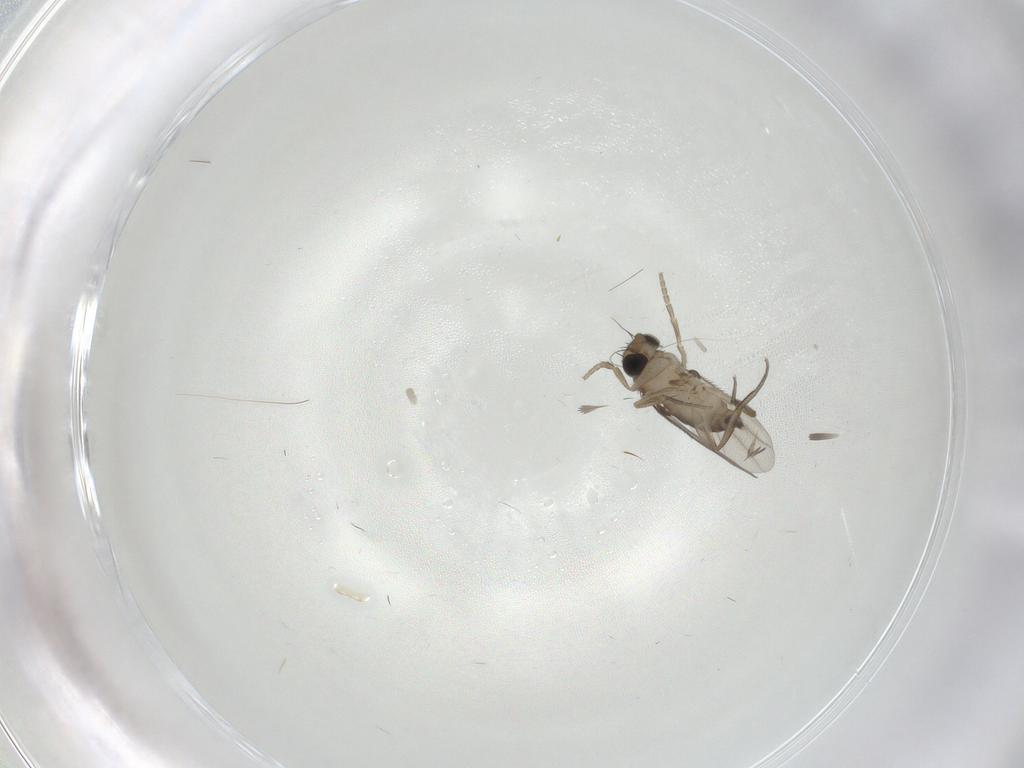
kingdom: Animalia
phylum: Arthropoda
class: Insecta
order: Diptera
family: Phoridae
